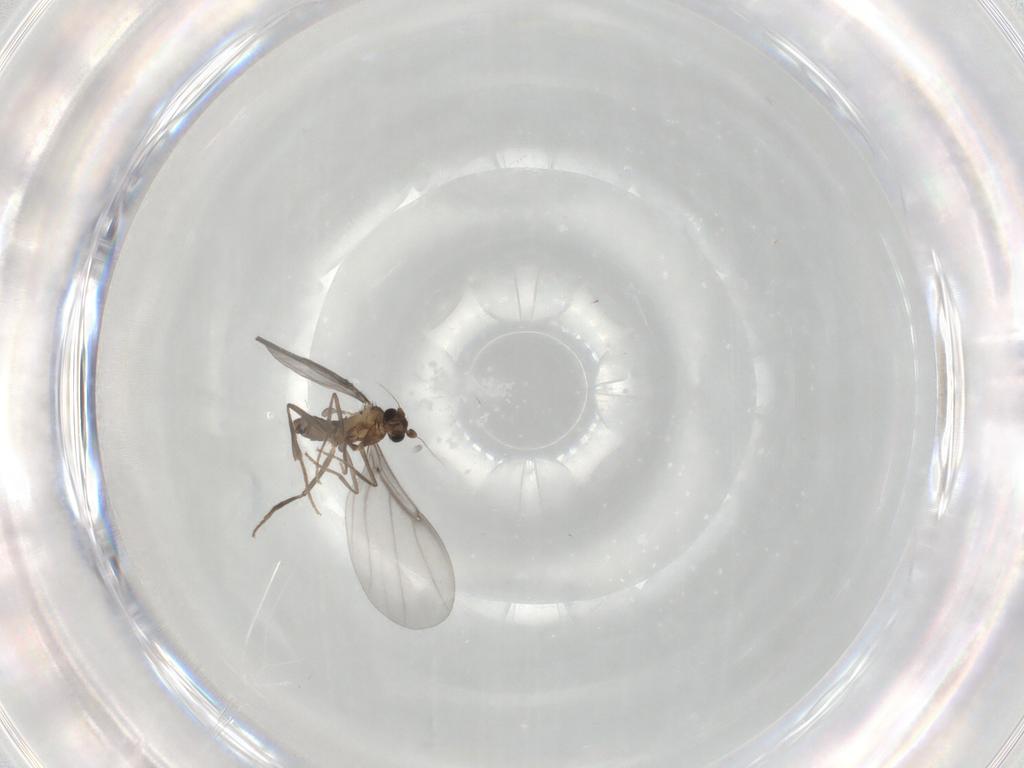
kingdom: Animalia
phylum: Arthropoda
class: Insecta
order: Diptera
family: Phoridae
